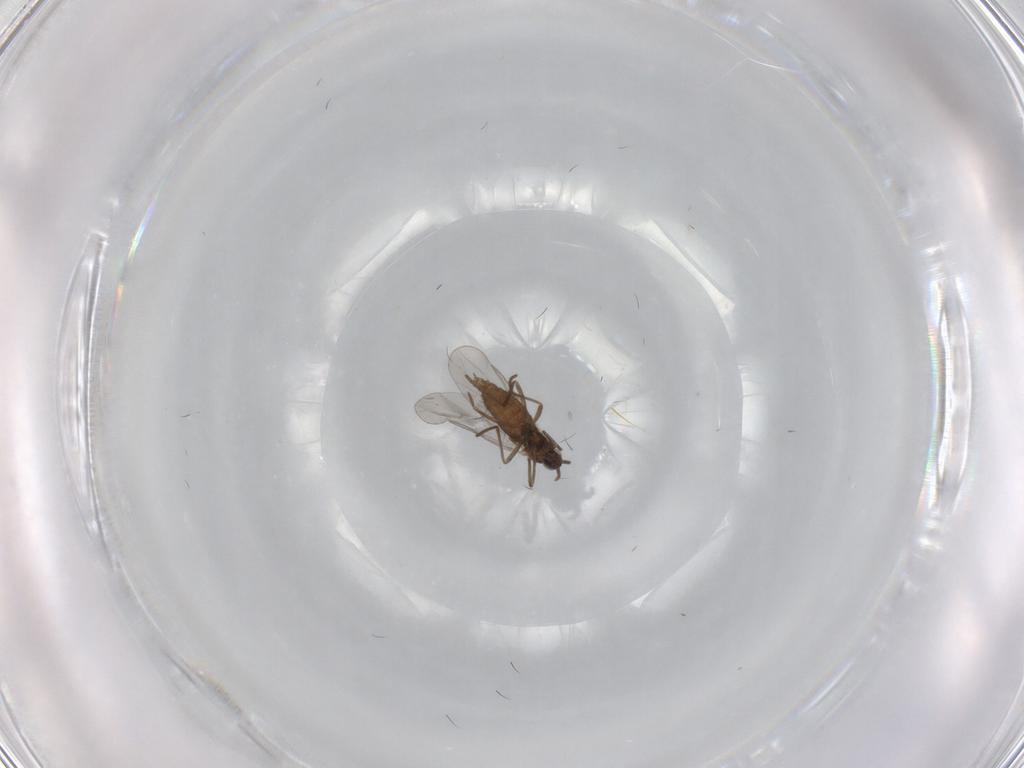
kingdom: Animalia
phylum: Arthropoda
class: Insecta
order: Diptera
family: Cecidomyiidae
